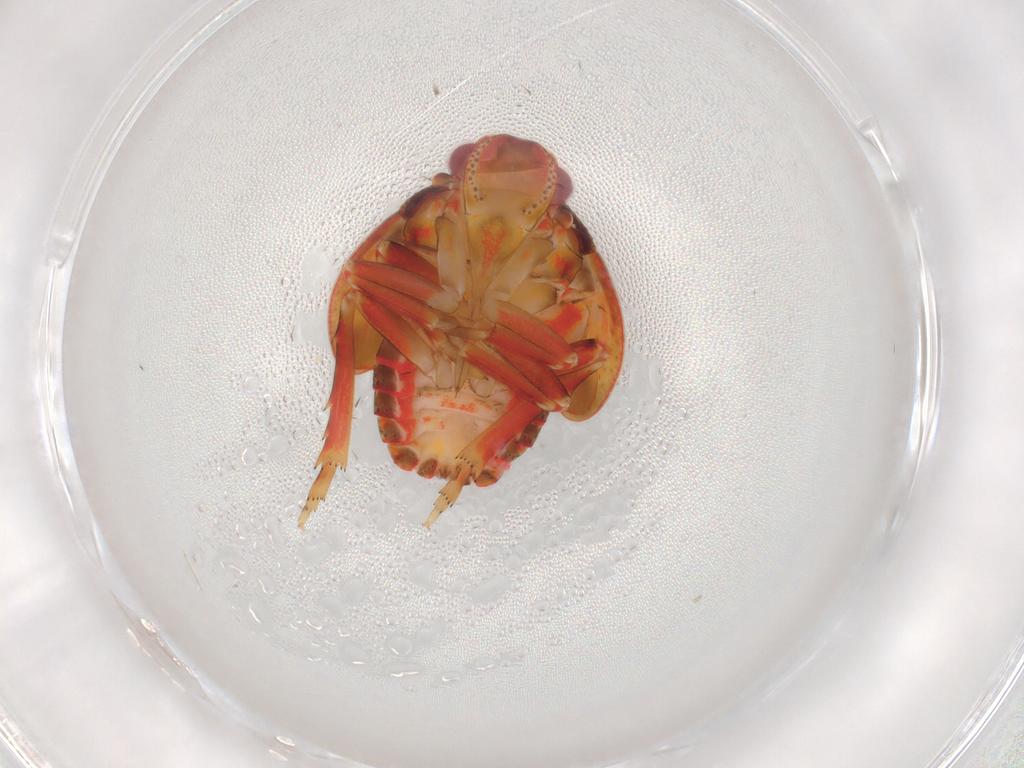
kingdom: Animalia
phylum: Arthropoda
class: Insecta
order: Hemiptera
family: Flatidae
